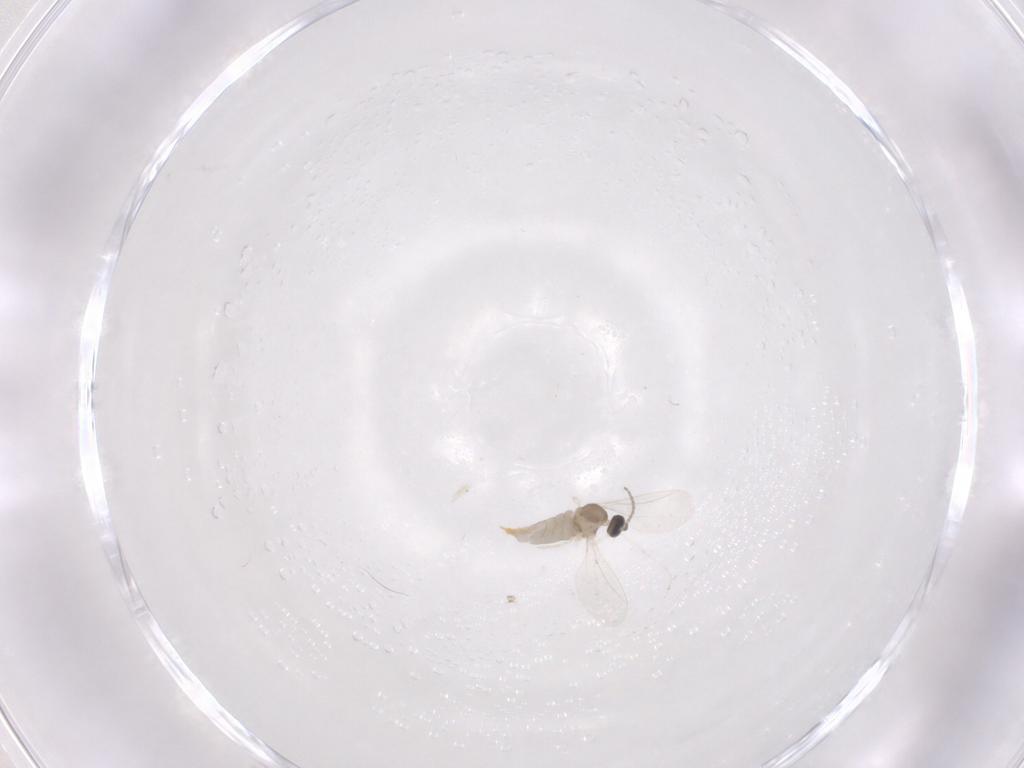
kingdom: Animalia
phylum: Arthropoda
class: Insecta
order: Diptera
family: Cecidomyiidae
